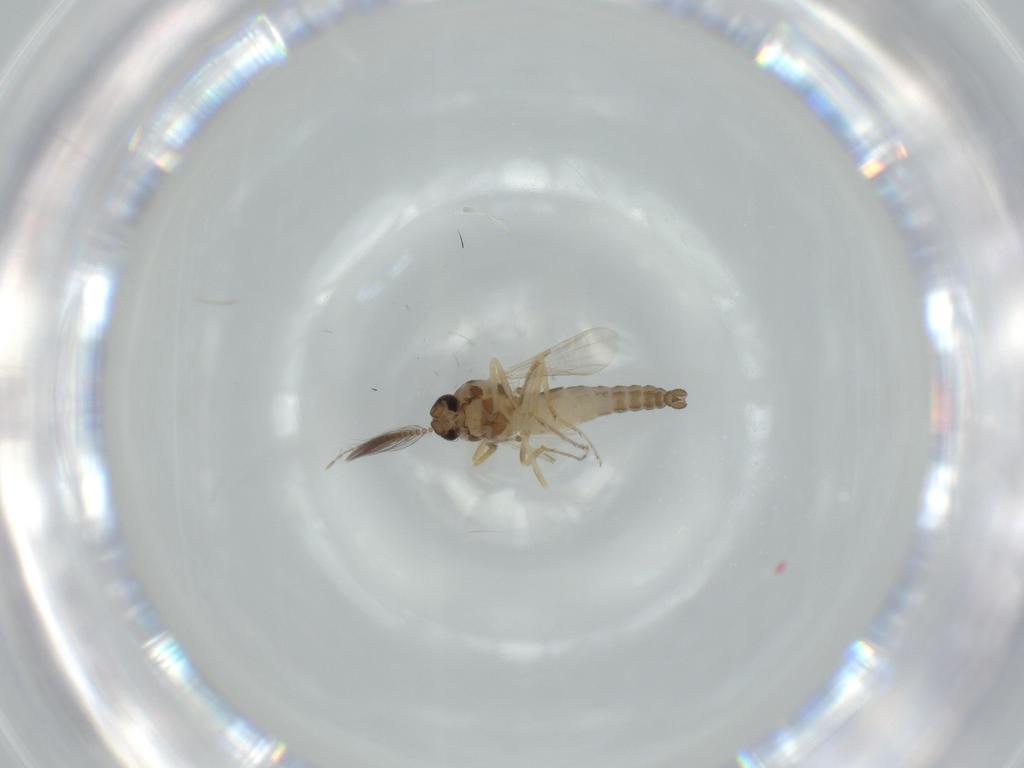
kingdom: Animalia
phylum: Arthropoda
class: Insecta
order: Diptera
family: Ceratopogonidae
